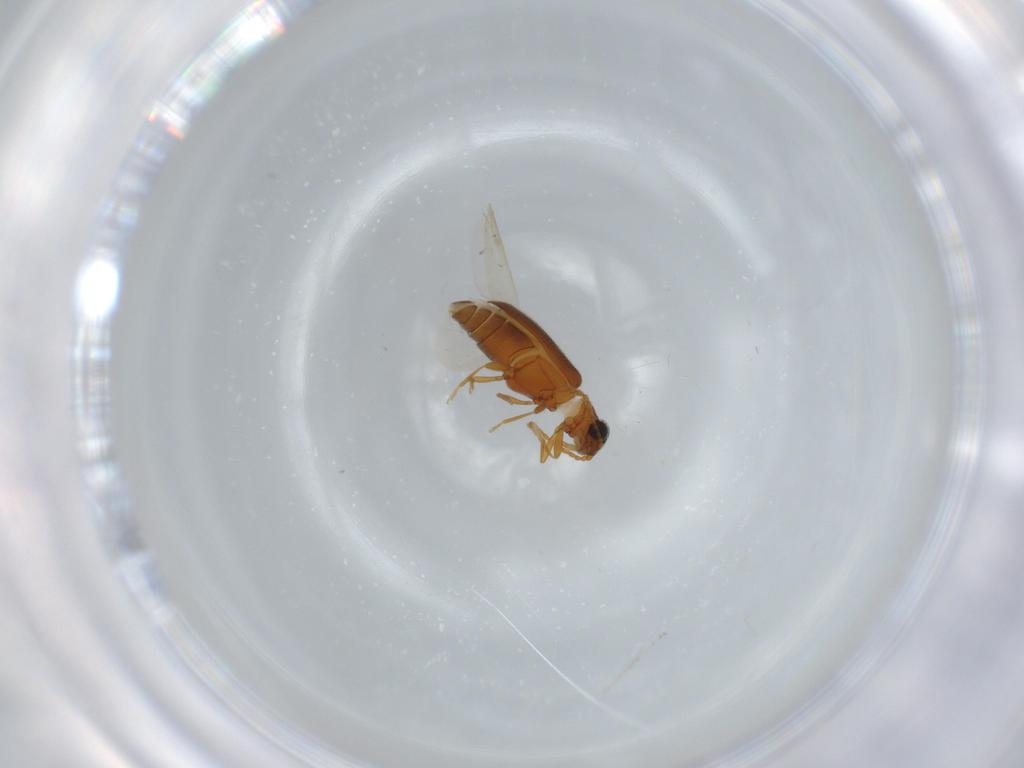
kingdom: Animalia
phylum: Arthropoda
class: Insecta
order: Coleoptera
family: Aderidae
